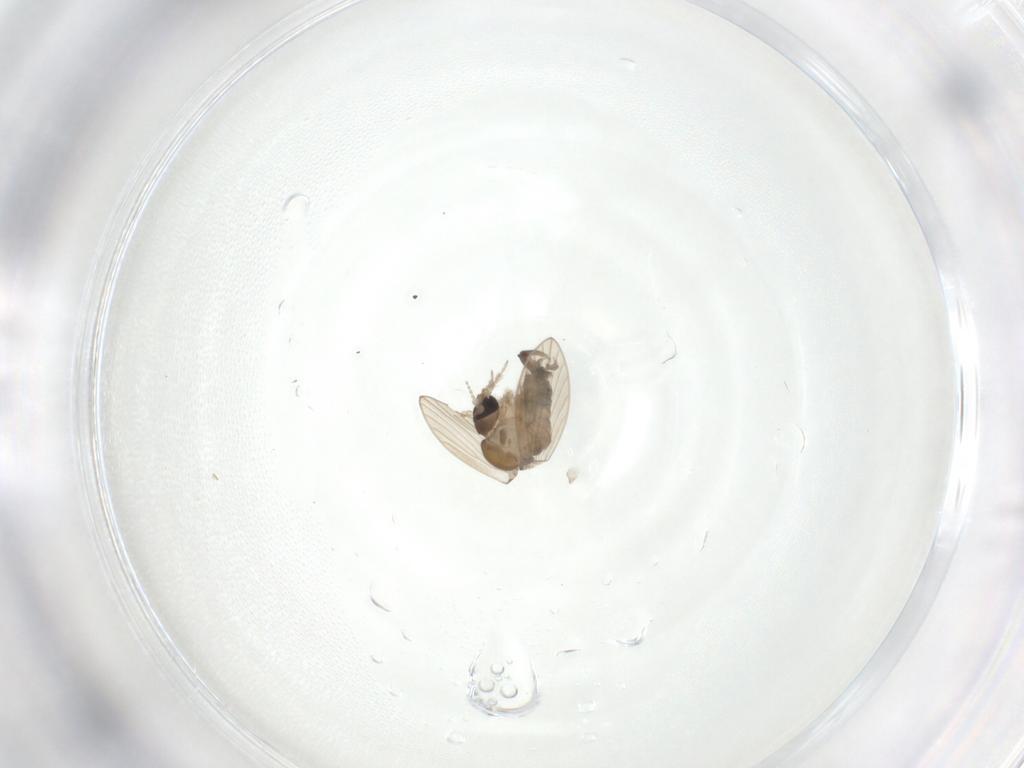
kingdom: Animalia
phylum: Arthropoda
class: Insecta
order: Diptera
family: Psychodidae
